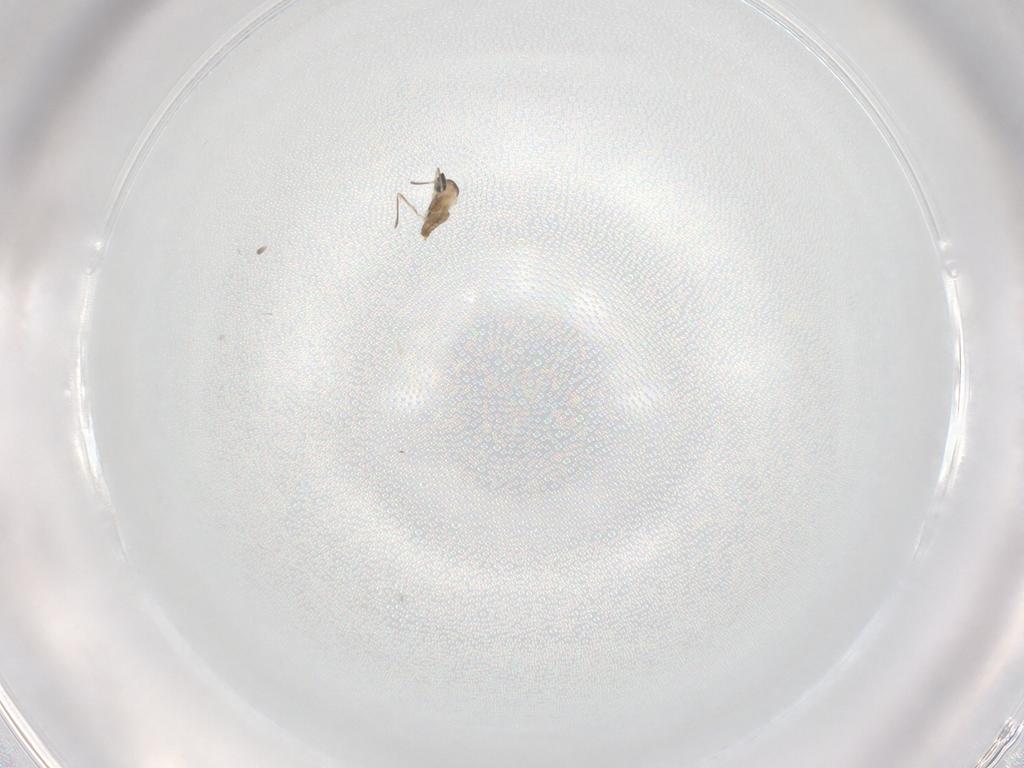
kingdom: Animalia
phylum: Arthropoda
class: Insecta
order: Diptera
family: Cecidomyiidae
